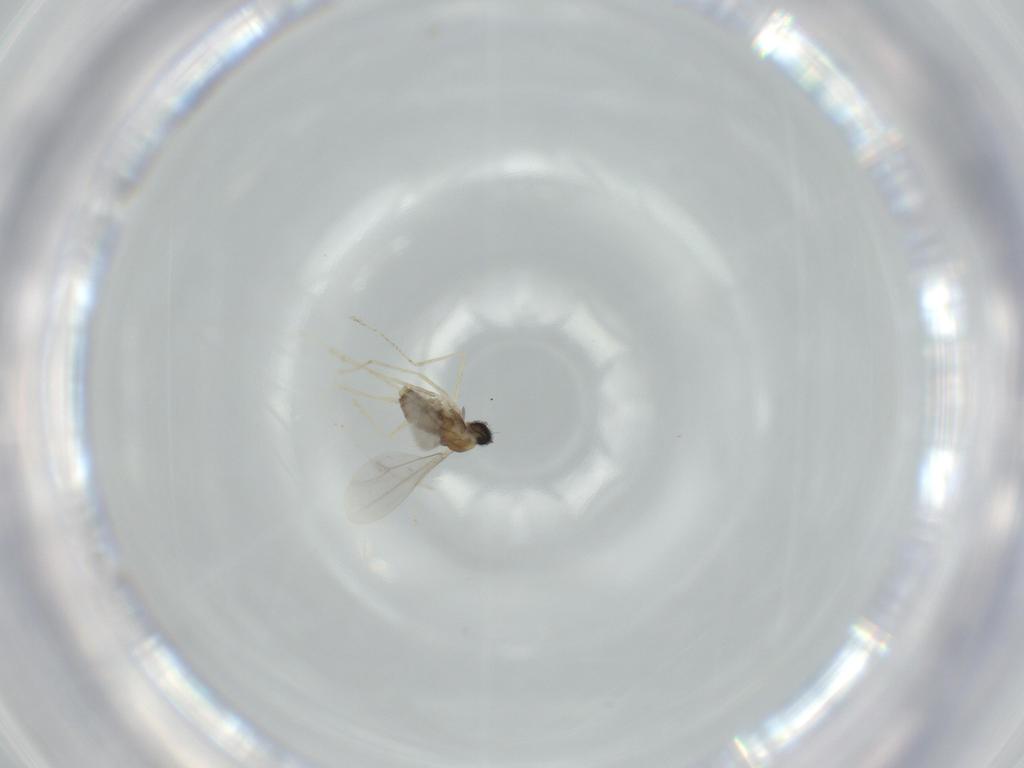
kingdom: Animalia
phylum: Arthropoda
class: Insecta
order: Diptera
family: Cecidomyiidae
